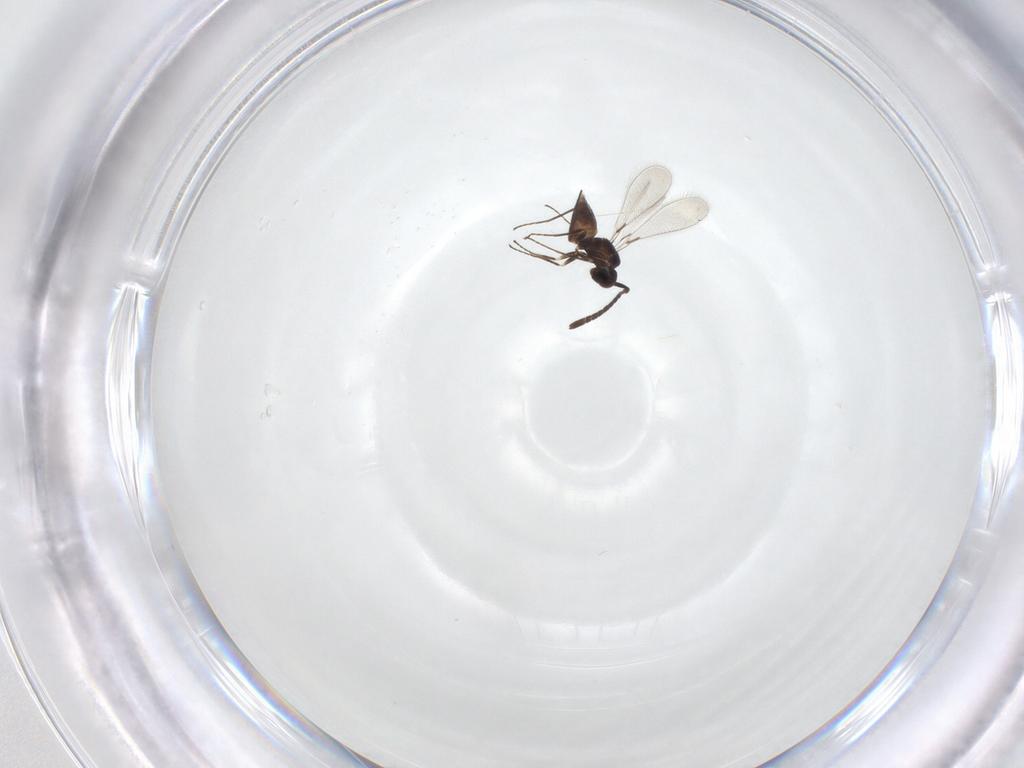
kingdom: Animalia
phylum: Arthropoda
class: Insecta
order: Hymenoptera
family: Mymaridae
